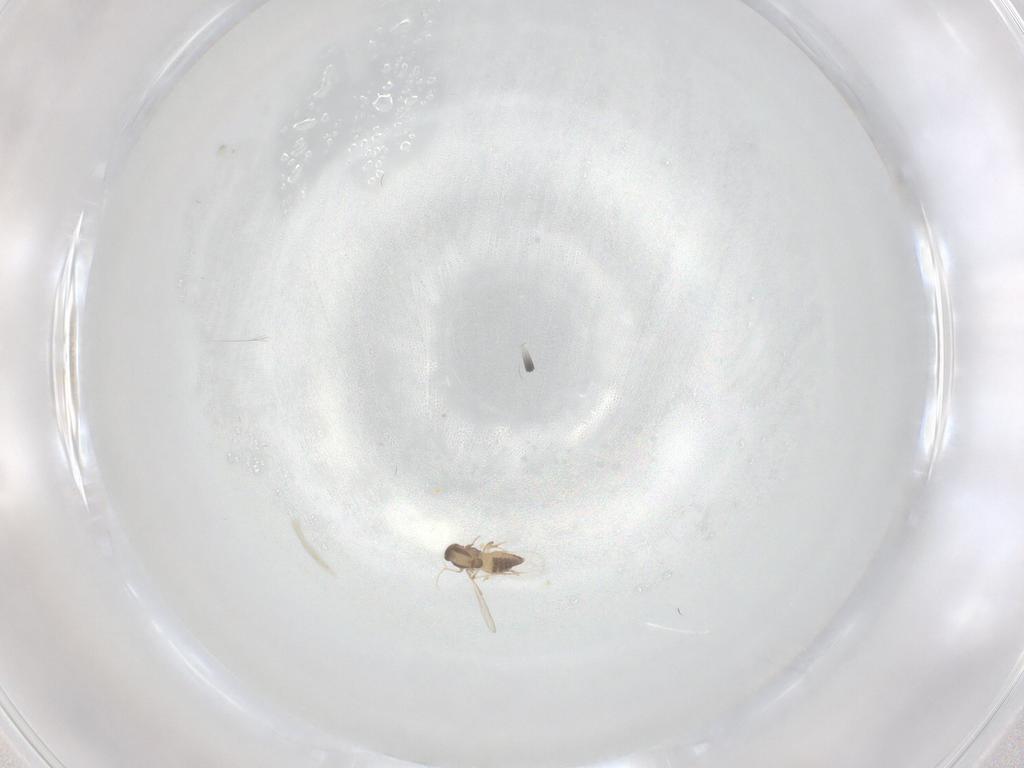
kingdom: Animalia
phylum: Arthropoda
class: Insecta
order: Diptera
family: Chironomidae
